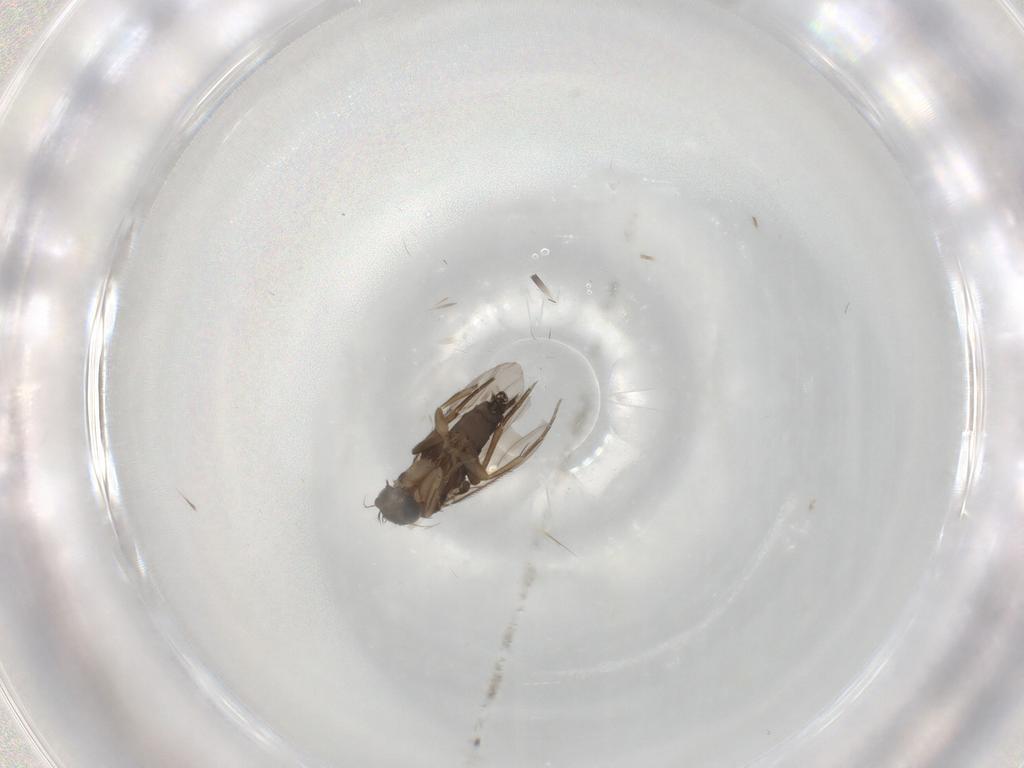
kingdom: Animalia
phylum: Arthropoda
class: Insecta
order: Diptera
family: Phoridae
